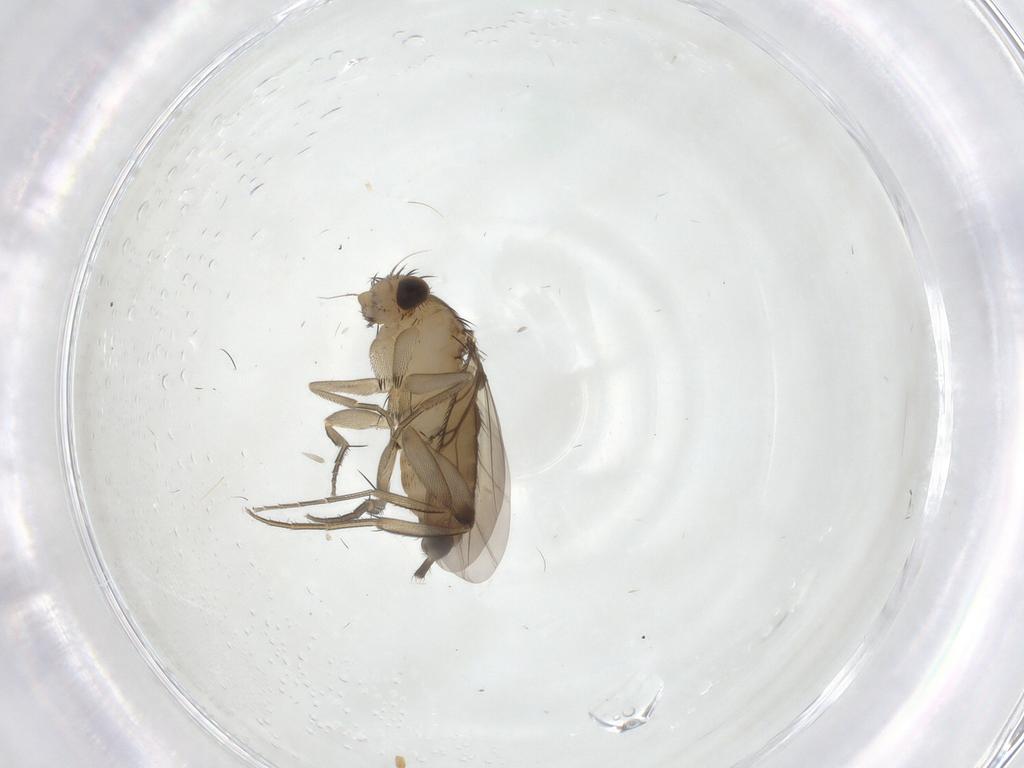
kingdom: Animalia
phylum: Arthropoda
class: Insecta
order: Diptera
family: Phoridae
